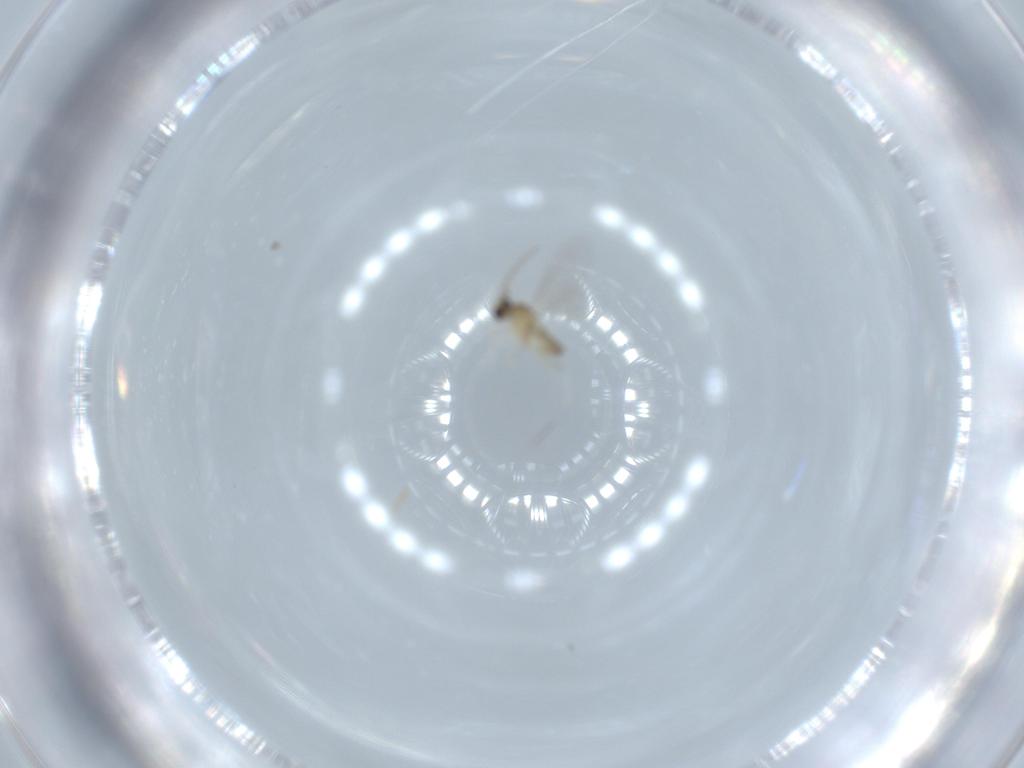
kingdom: Animalia
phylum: Arthropoda
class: Insecta
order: Diptera
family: Cecidomyiidae
